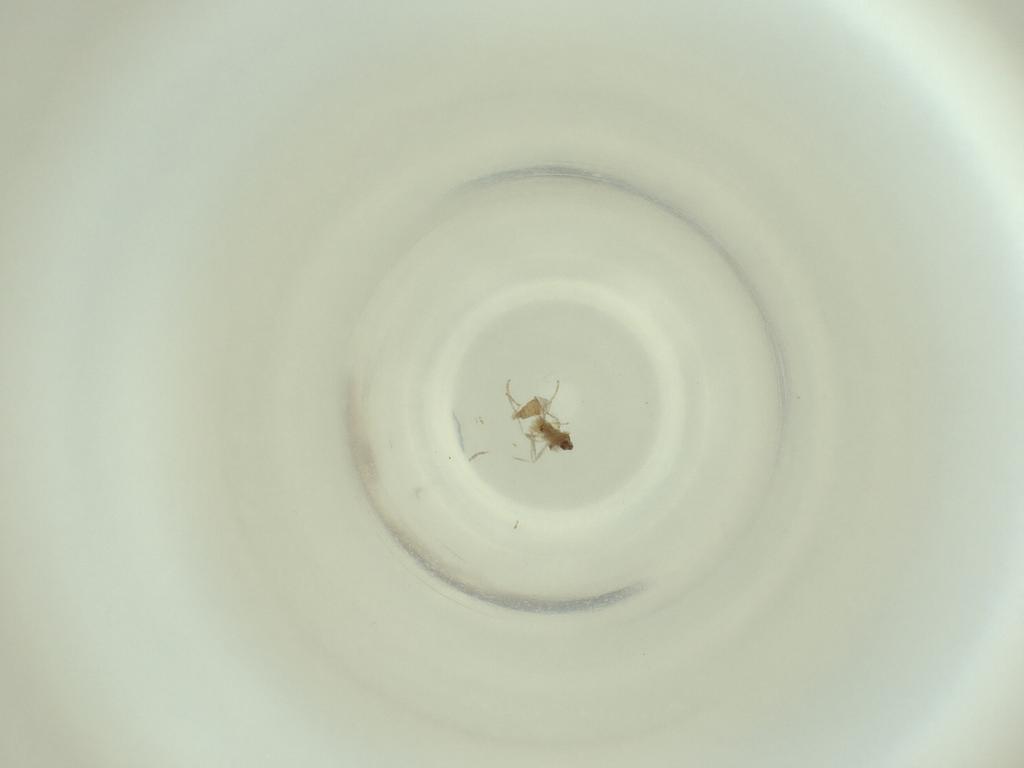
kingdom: Animalia
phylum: Arthropoda
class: Insecta
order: Diptera
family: Cecidomyiidae
